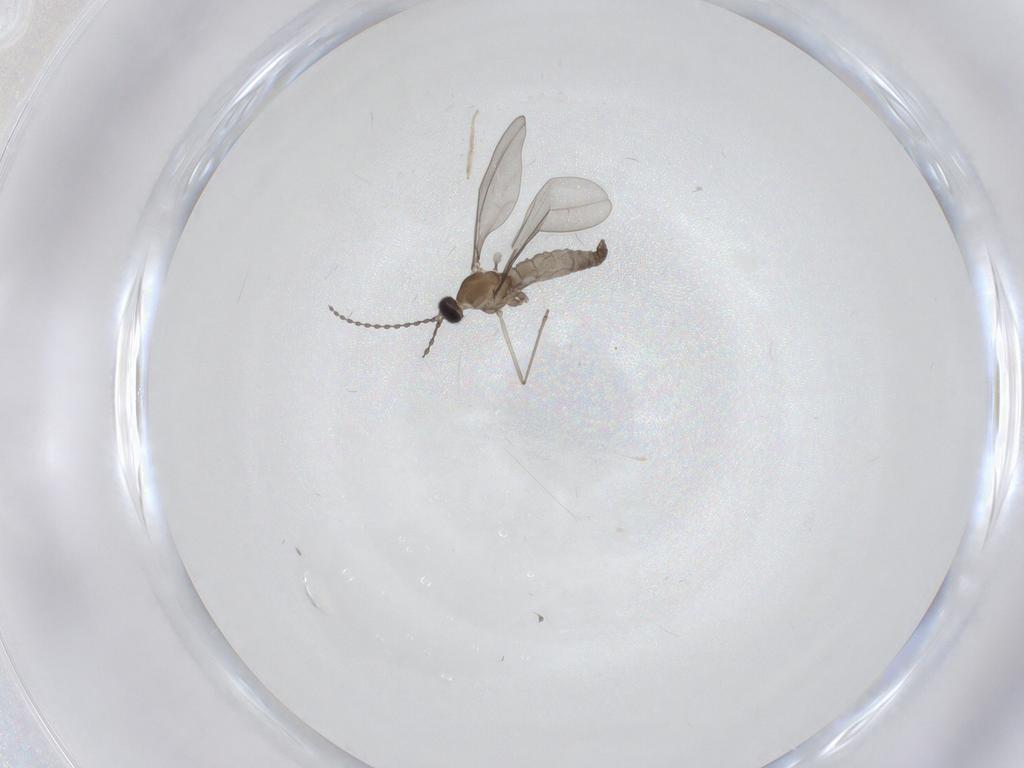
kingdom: Animalia
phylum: Arthropoda
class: Insecta
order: Diptera
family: Cecidomyiidae
